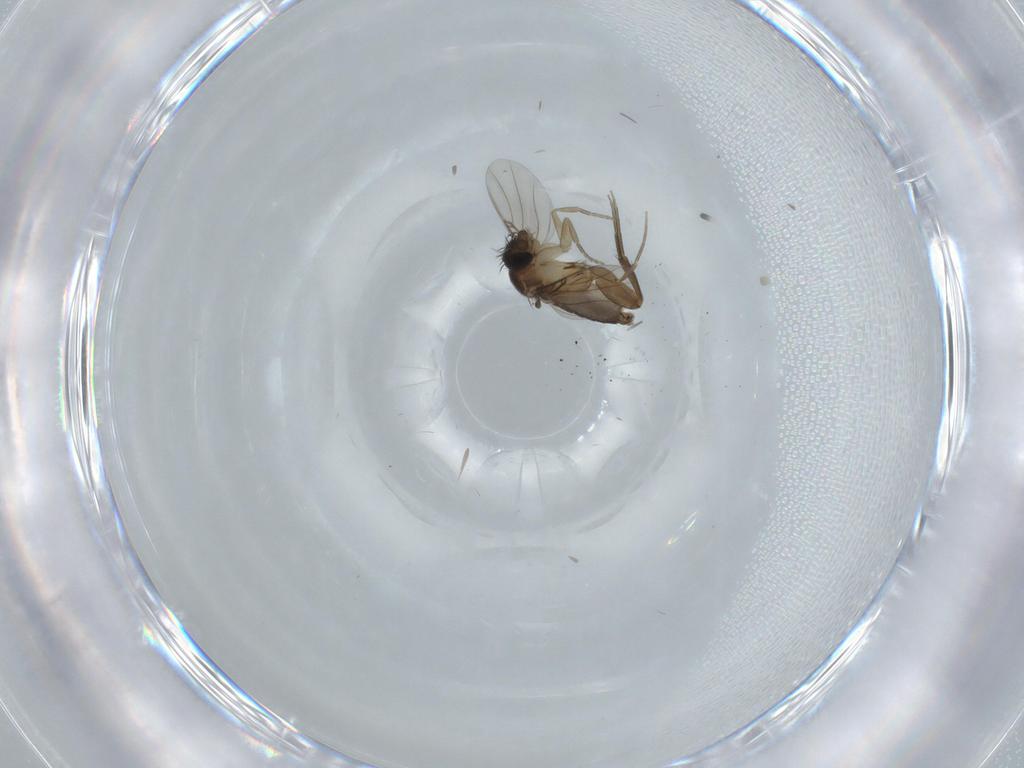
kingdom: Animalia
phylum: Arthropoda
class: Insecta
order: Diptera
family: Phoridae
